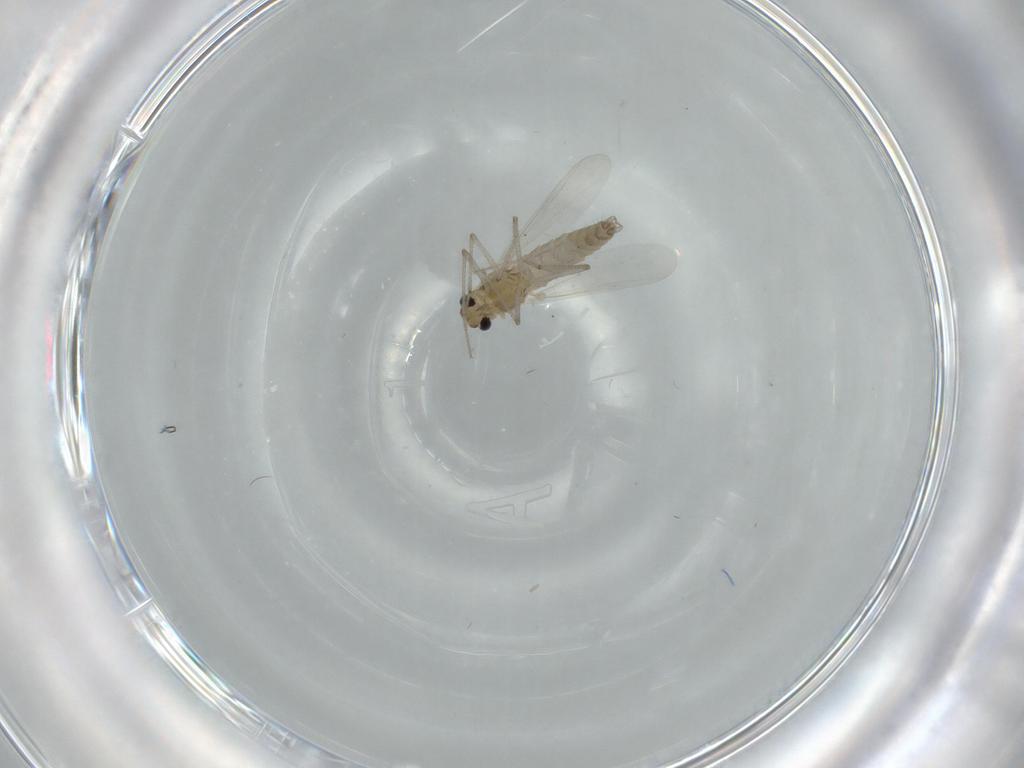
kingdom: Animalia
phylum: Arthropoda
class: Insecta
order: Diptera
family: Chironomidae
